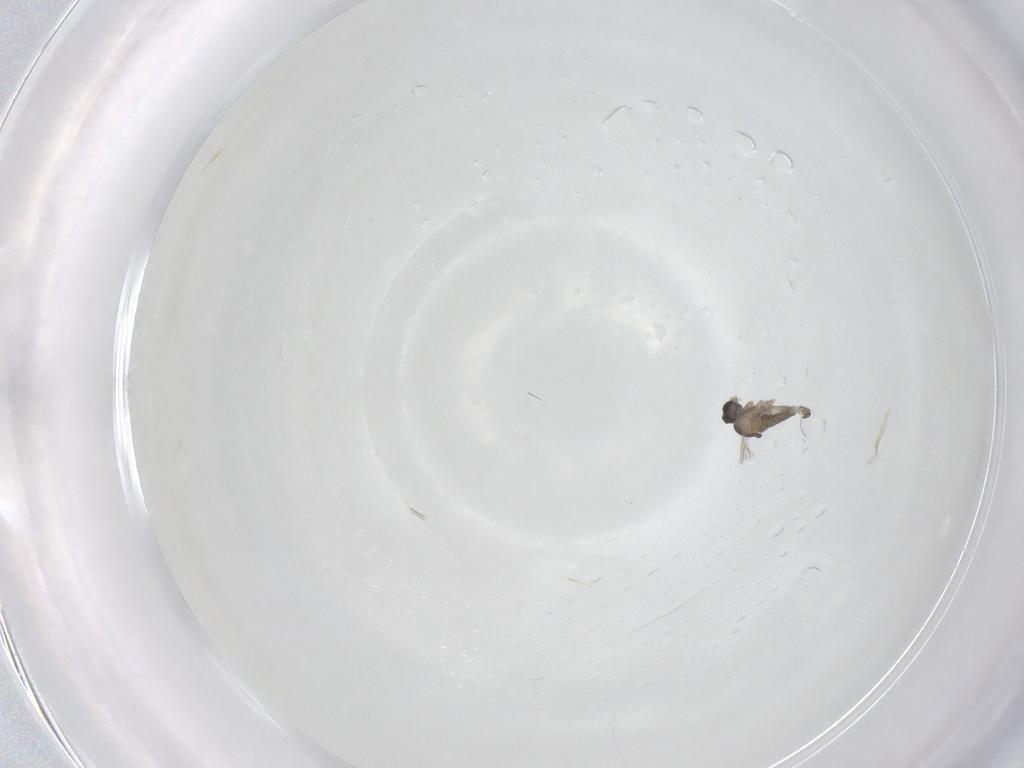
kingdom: Animalia
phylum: Arthropoda
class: Insecta
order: Diptera
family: Cecidomyiidae
